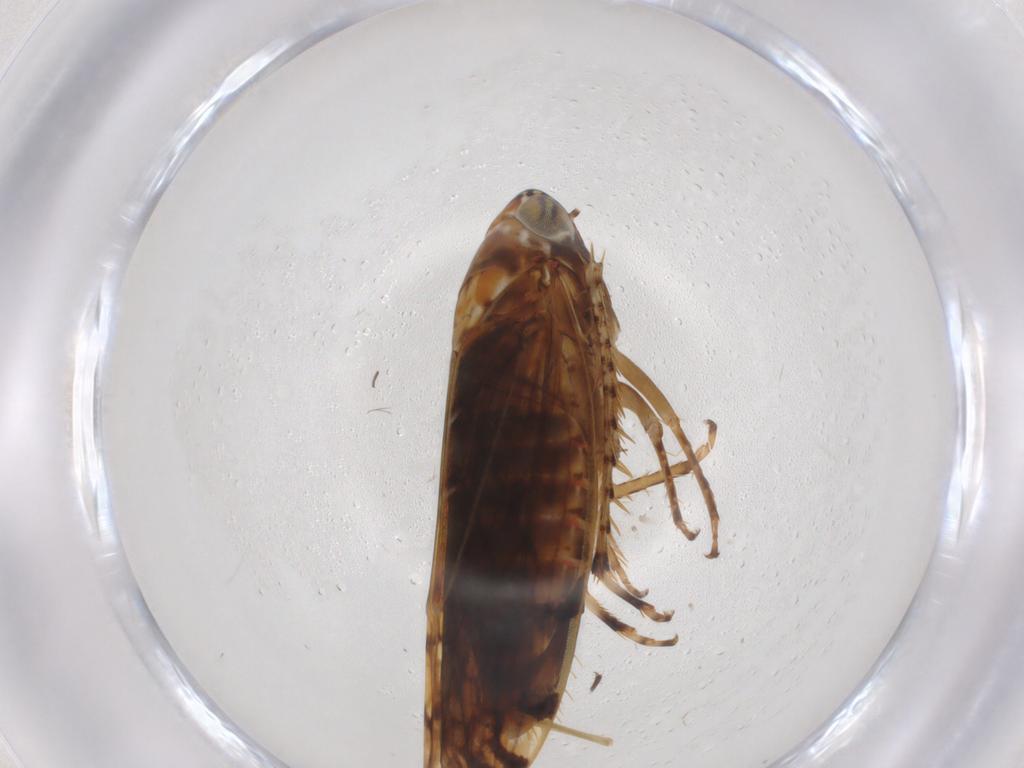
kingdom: Animalia
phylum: Arthropoda
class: Insecta
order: Hemiptera
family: Cicadellidae
